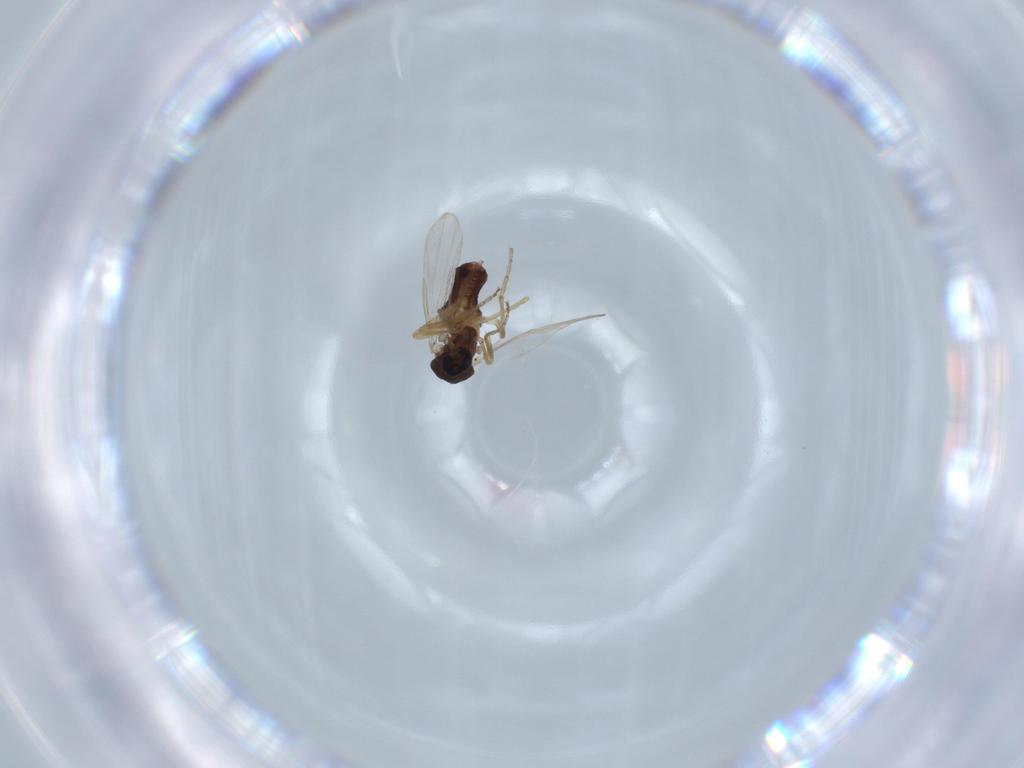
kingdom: Animalia
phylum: Arthropoda
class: Insecta
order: Diptera
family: Ceratopogonidae
